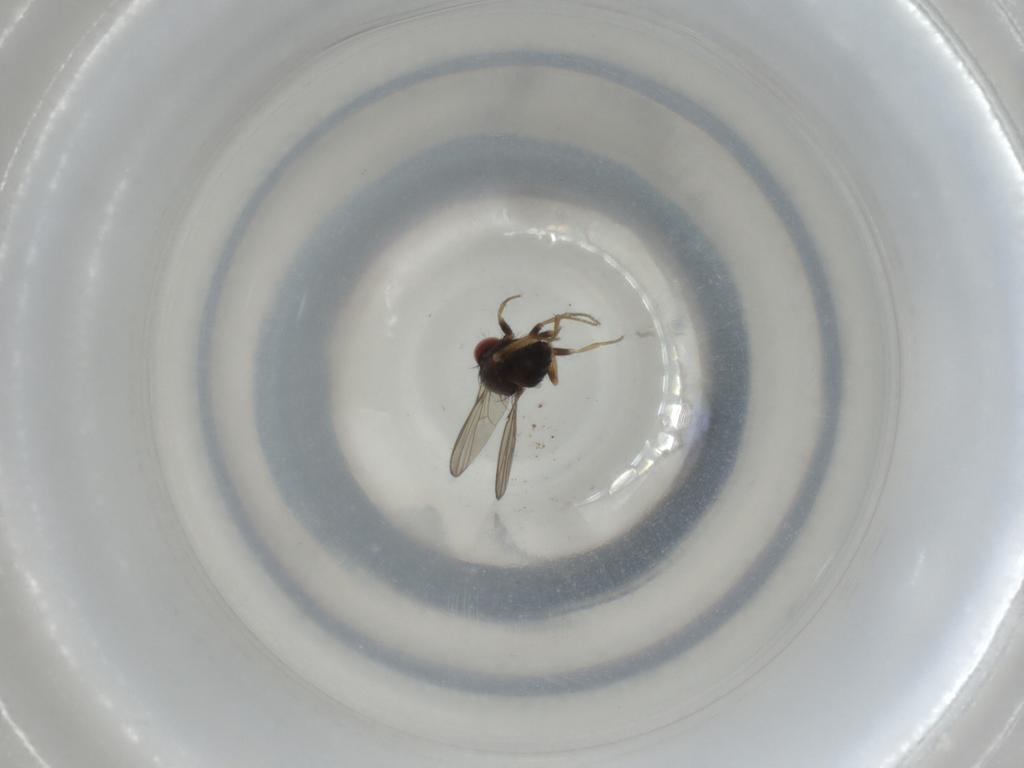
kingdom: Animalia
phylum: Arthropoda
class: Insecta
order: Diptera
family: Drosophilidae
